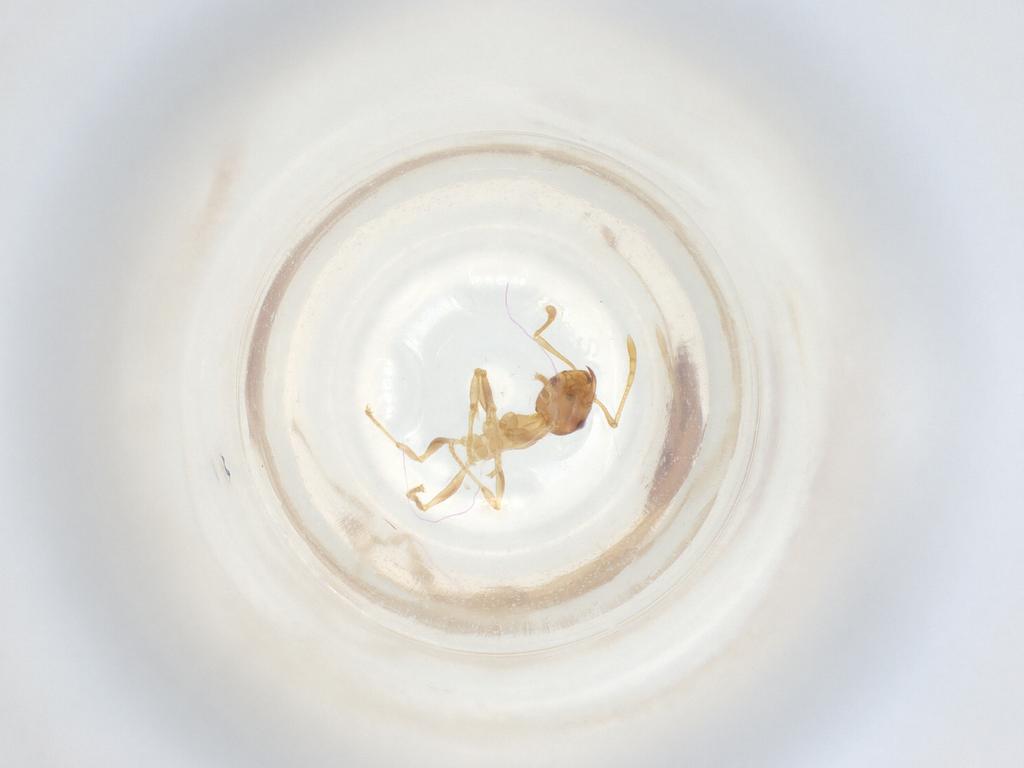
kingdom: Animalia
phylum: Arthropoda
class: Insecta
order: Hymenoptera
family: Formicidae
